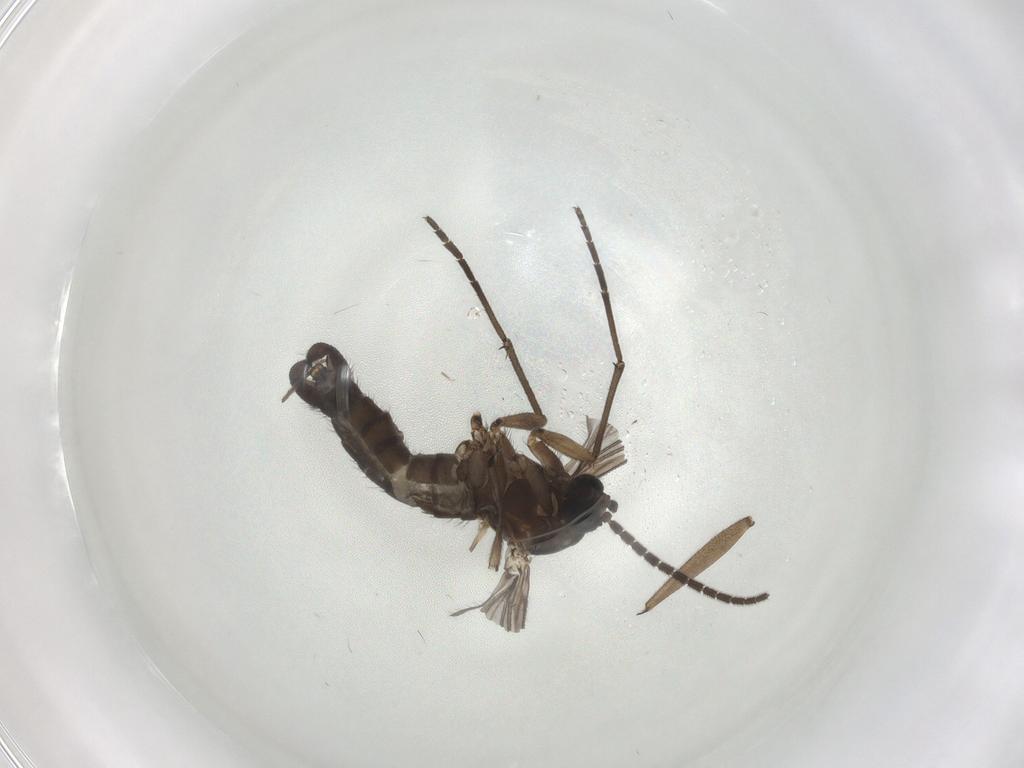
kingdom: Animalia
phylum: Arthropoda
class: Insecta
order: Diptera
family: Sciaridae
